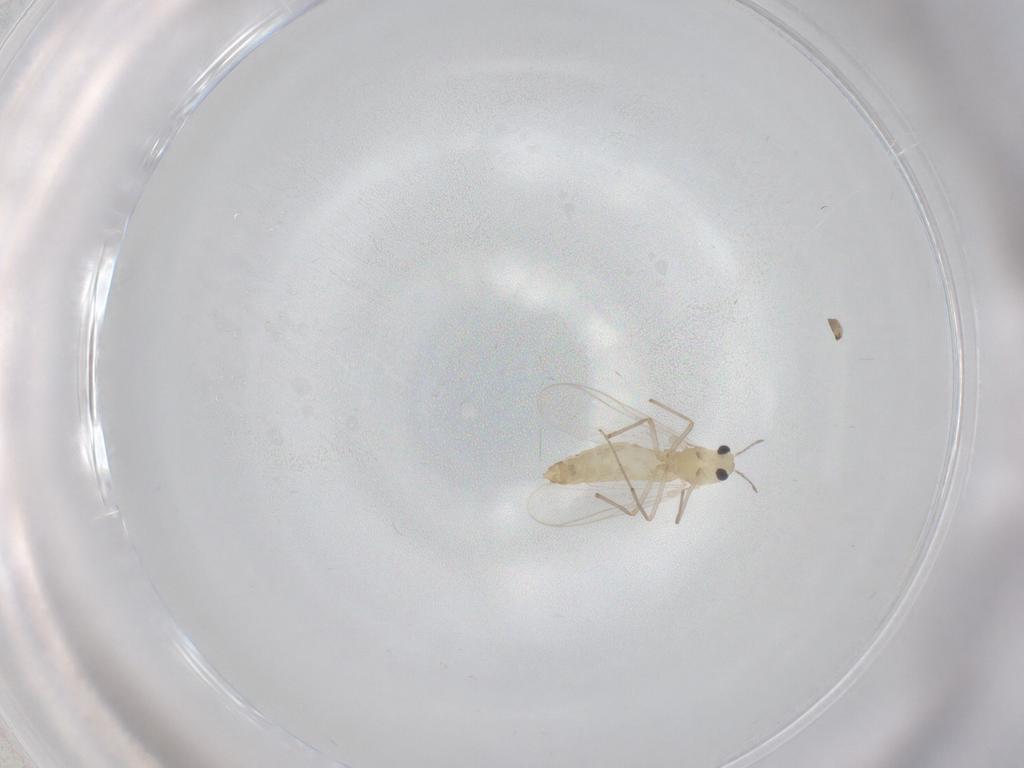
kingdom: Animalia
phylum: Arthropoda
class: Insecta
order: Diptera
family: Chironomidae
